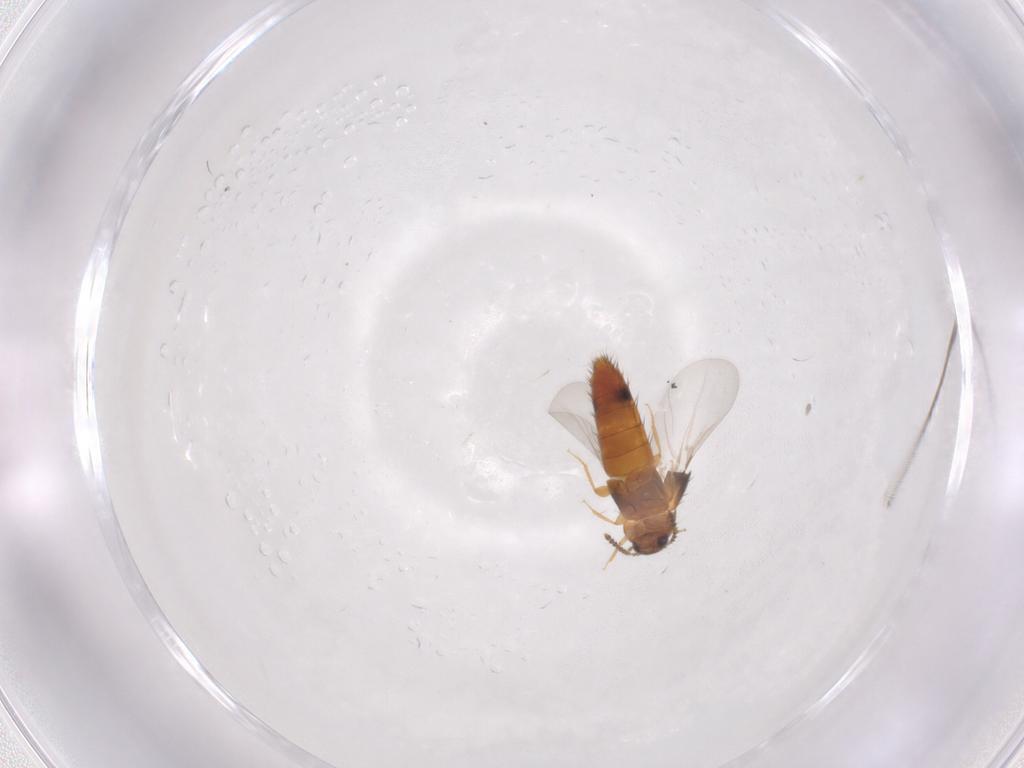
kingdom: Animalia
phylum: Arthropoda
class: Insecta
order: Coleoptera
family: Staphylinidae
